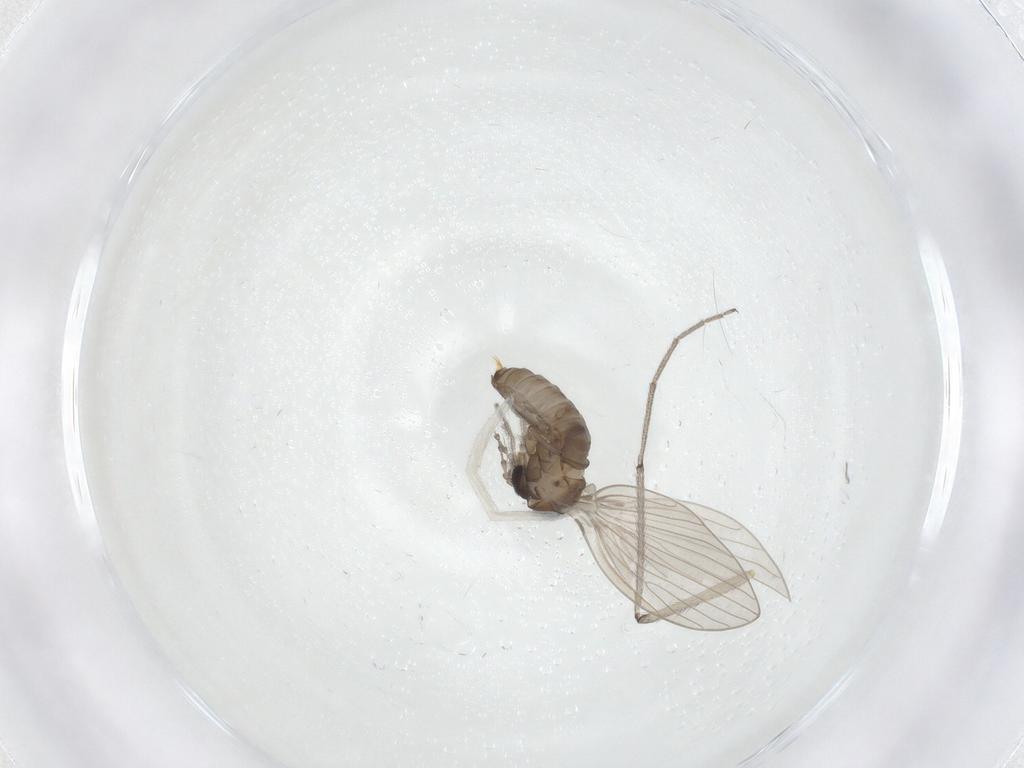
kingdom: Animalia
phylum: Arthropoda
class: Insecta
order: Diptera
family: Chironomidae
